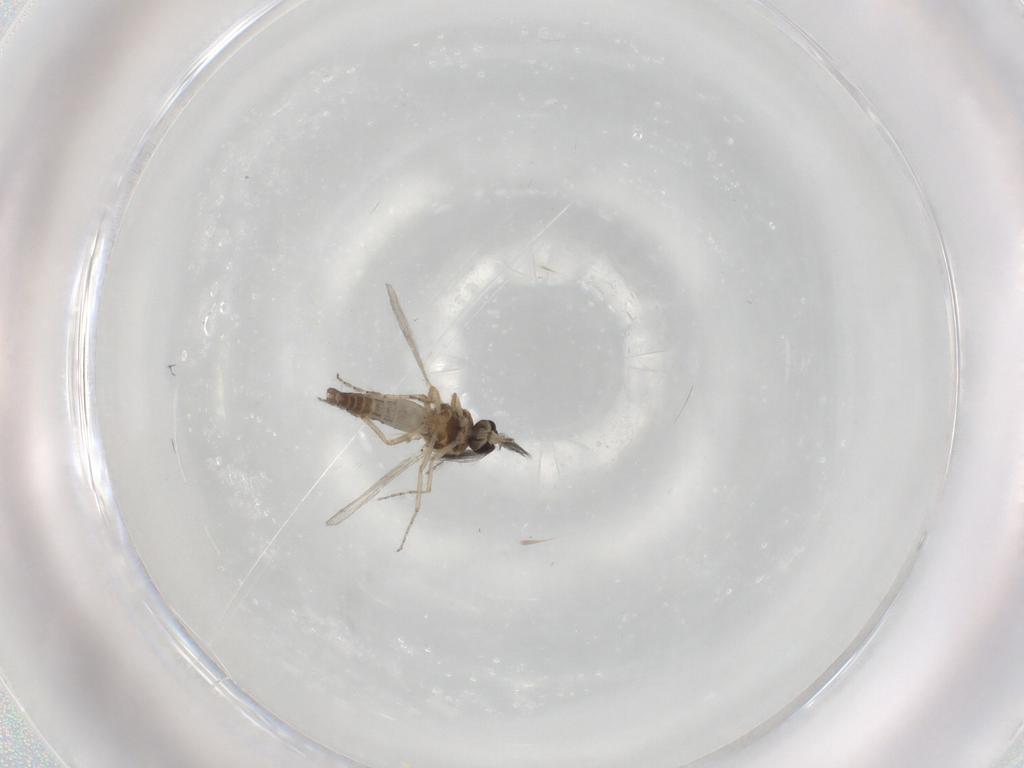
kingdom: Animalia
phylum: Arthropoda
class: Insecta
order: Diptera
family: Ceratopogonidae
